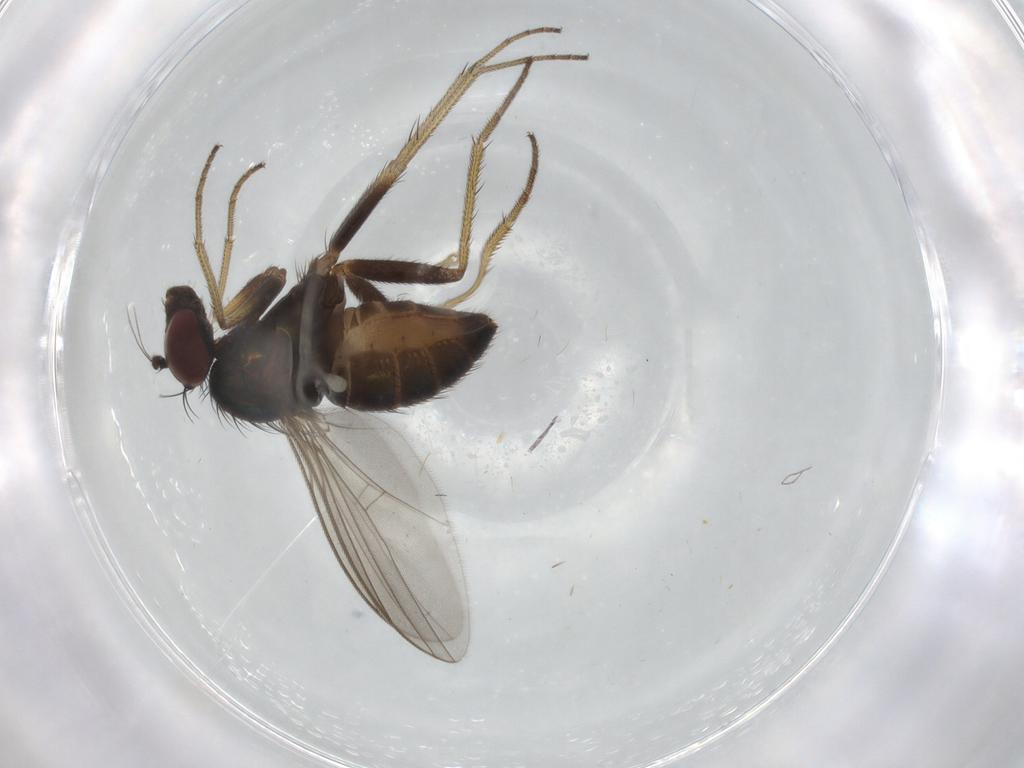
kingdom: Animalia
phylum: Arthropoda
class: Insecta
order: Diptera
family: Dolichopodidae
